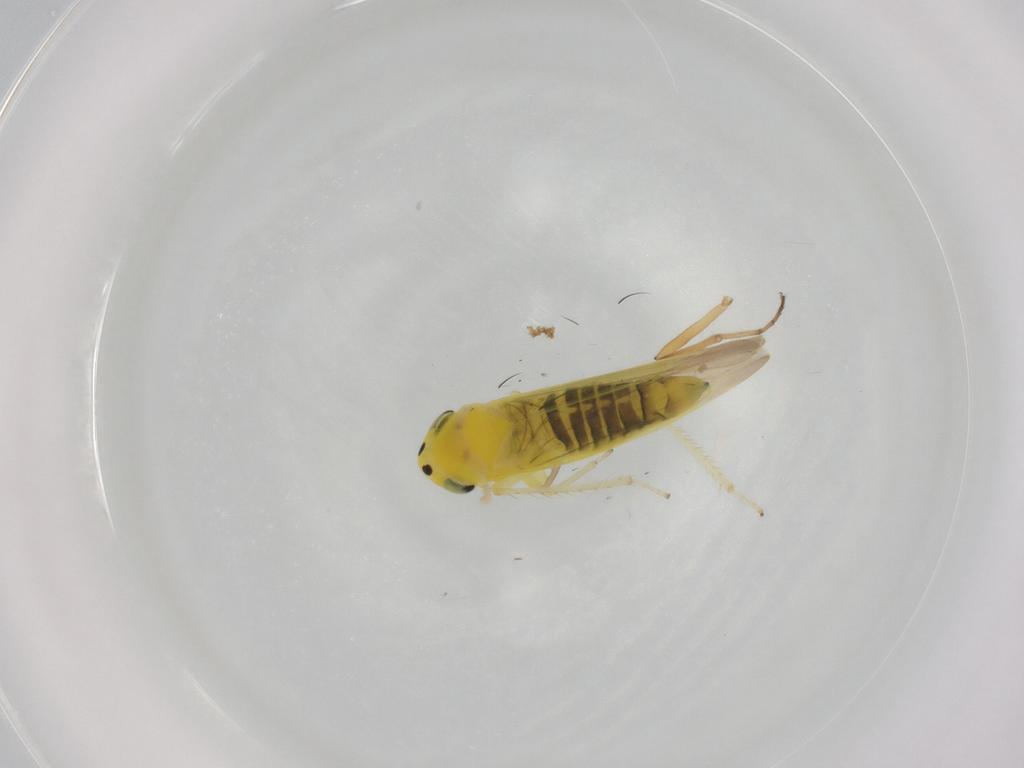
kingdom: Animalia
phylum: Arthropoda
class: Insecta
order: Hemiptera
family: Cicadellidae
